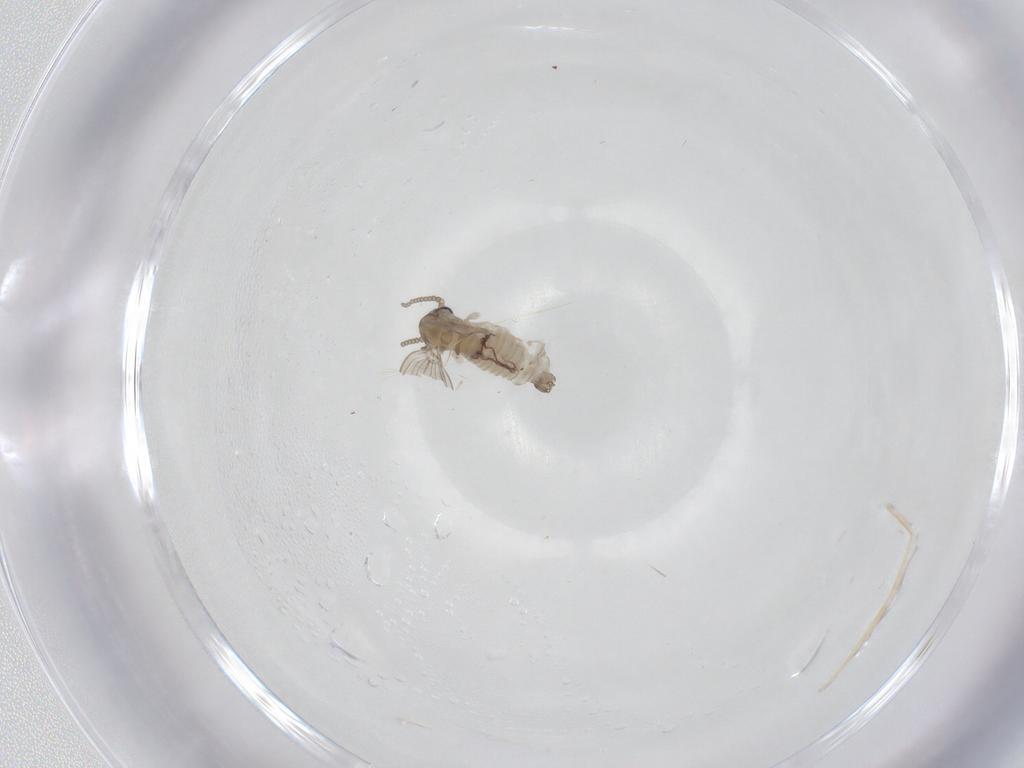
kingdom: Animalia
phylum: Arthropoda
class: Insecta
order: Diptera
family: Psychodidae
